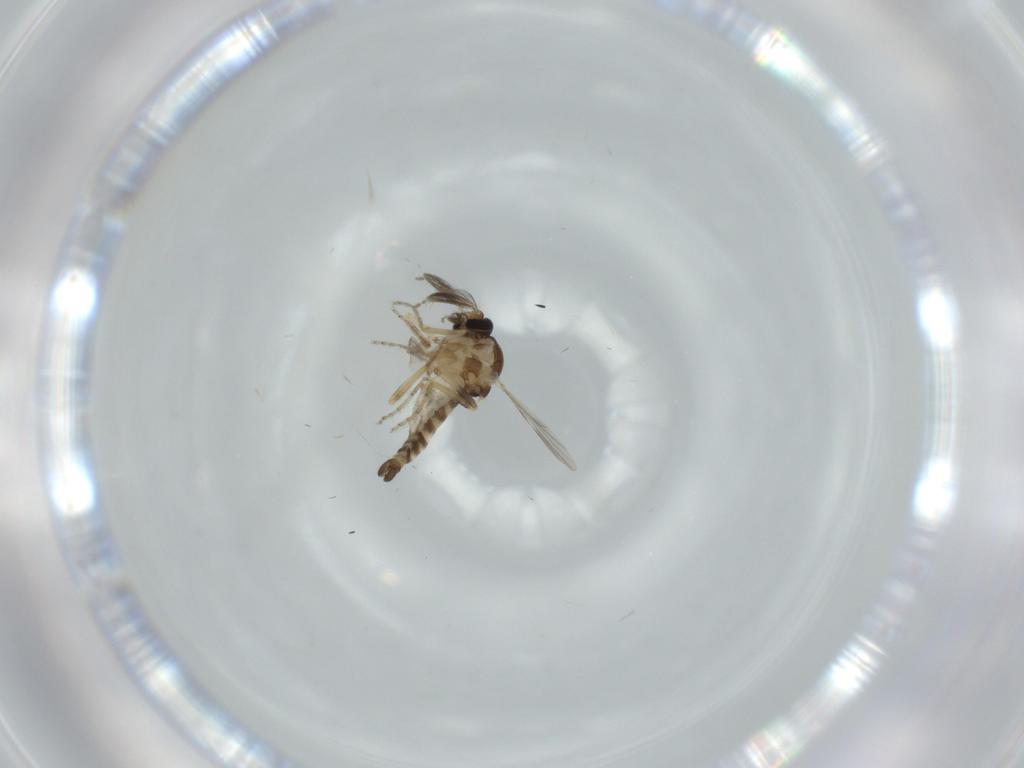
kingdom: Animalia
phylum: Arthropoda
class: Insecta
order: Diptera
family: Ceratopogonidae
